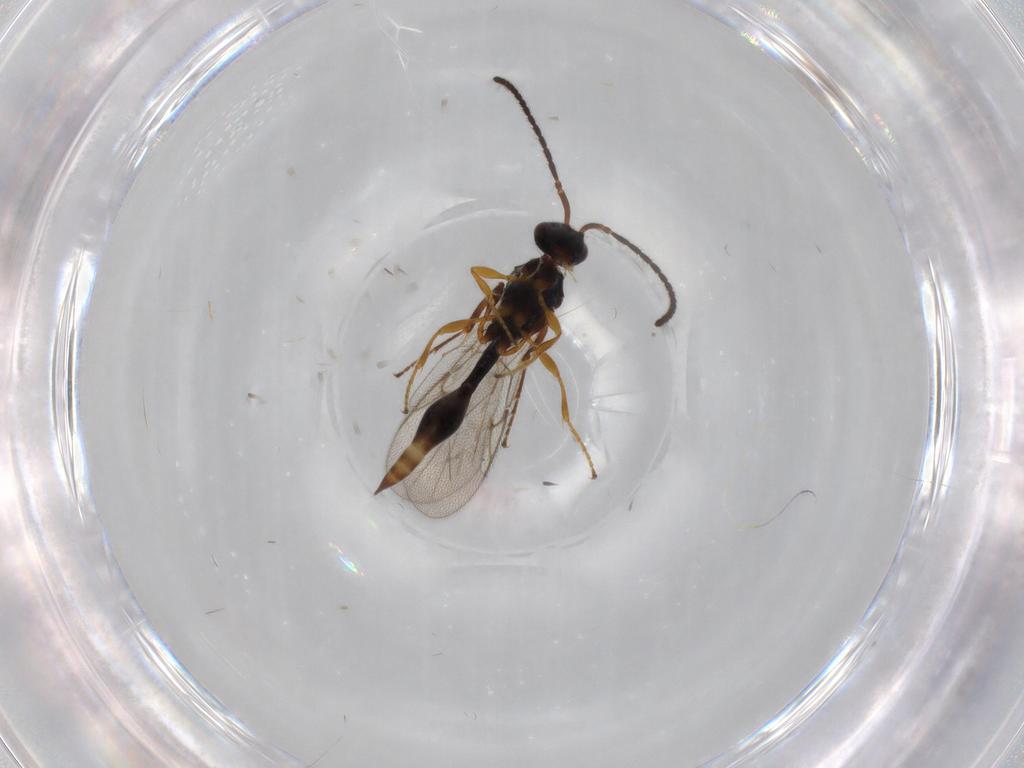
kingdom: Animalia
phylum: Arthropoda
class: Insecta
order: Hymenoptera
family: Diapriidae
